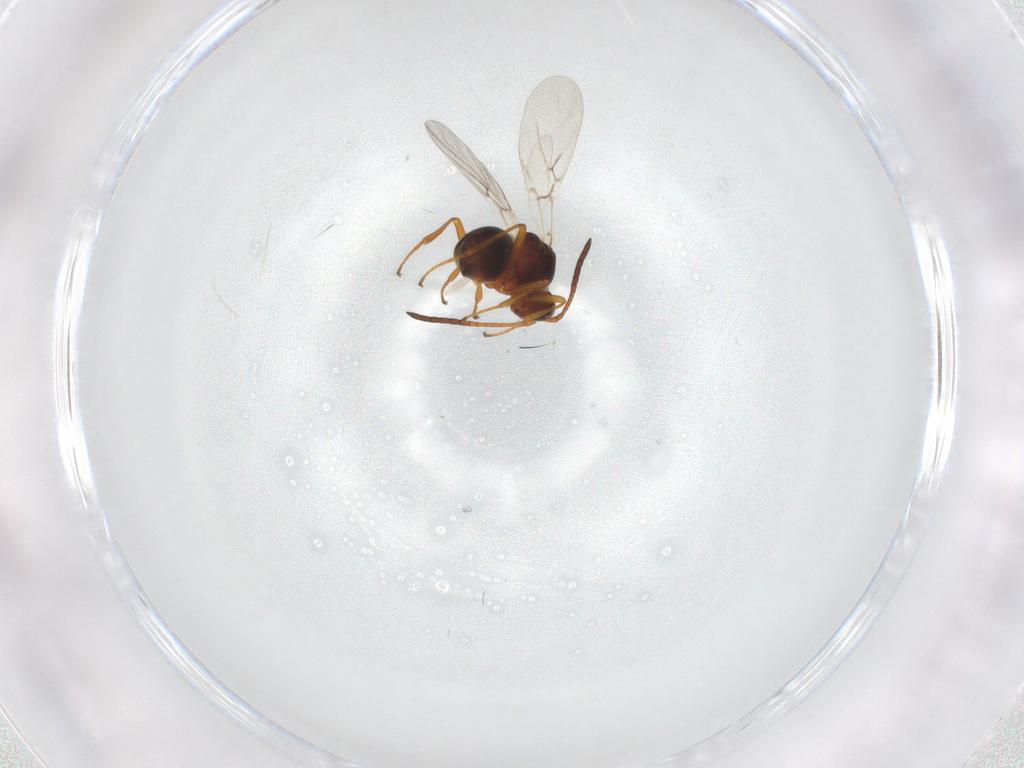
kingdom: Animalia
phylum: Arthropoda
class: Insecta
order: Hymenoptera
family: Figitidae
